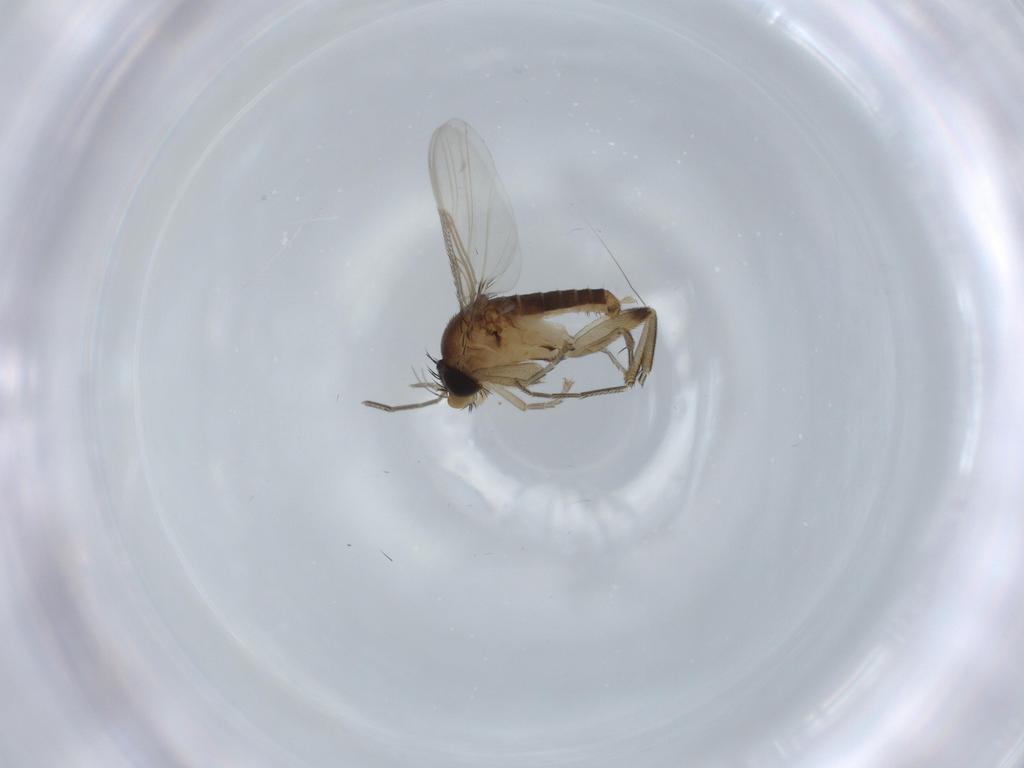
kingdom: Animalia
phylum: Arthropoda
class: Insecta
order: Diptera
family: Phoridae
